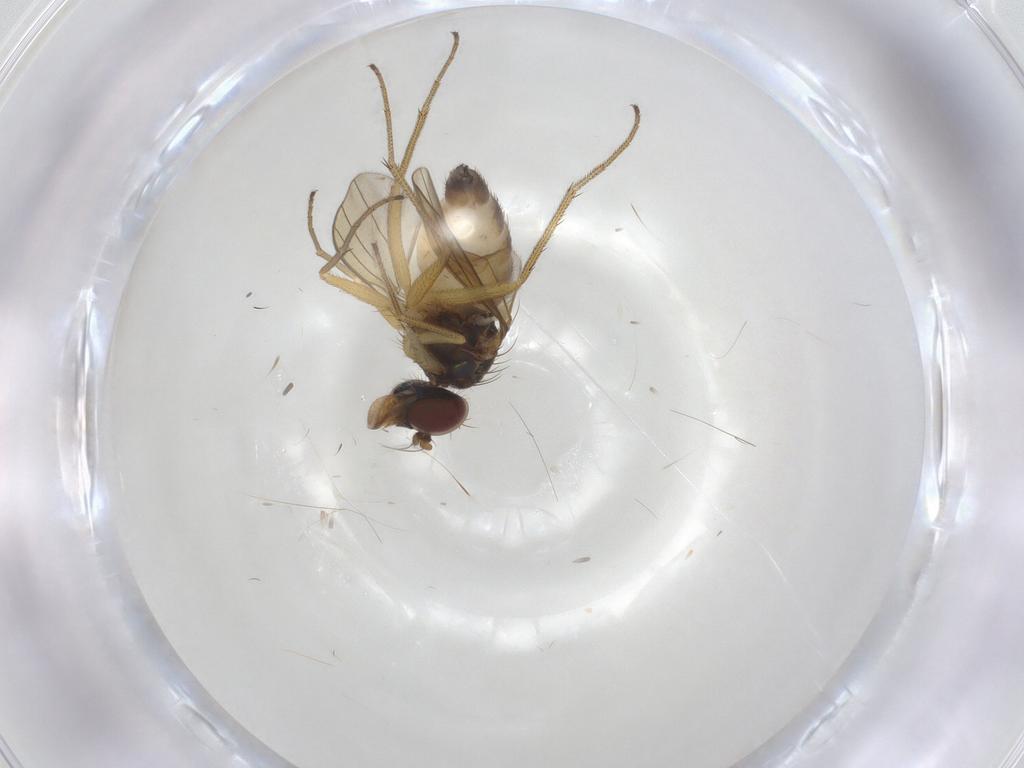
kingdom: Animalia
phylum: Arthropoda
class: Insecta
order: Diptera
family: Dolichopodidae
